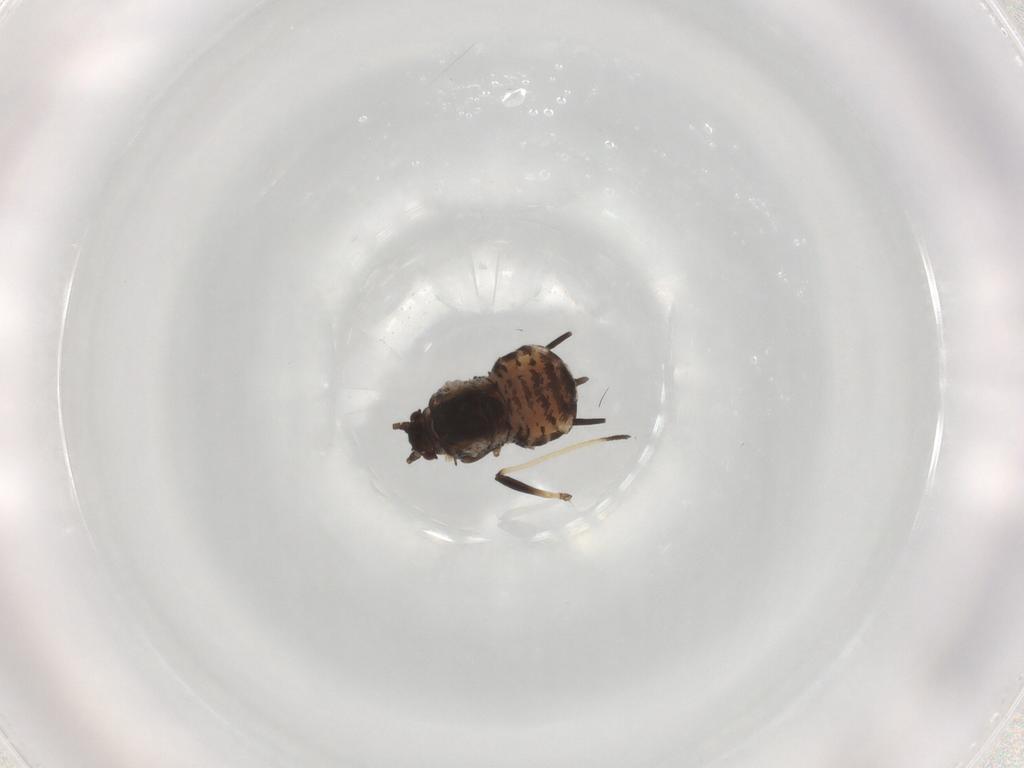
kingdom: Animalia
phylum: Arthropoda
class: Insecta
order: Hemiptera
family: Aphididae
